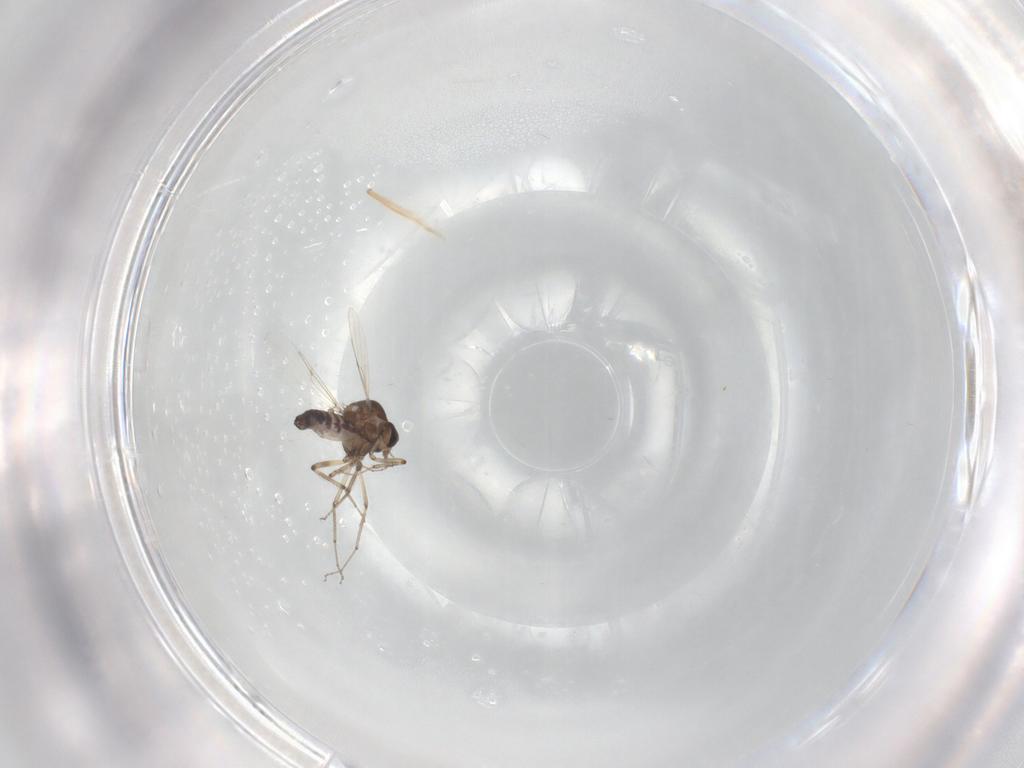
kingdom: Animalia
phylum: Arthropoda
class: Insecta
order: Diptera
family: Ceratopogonidae
